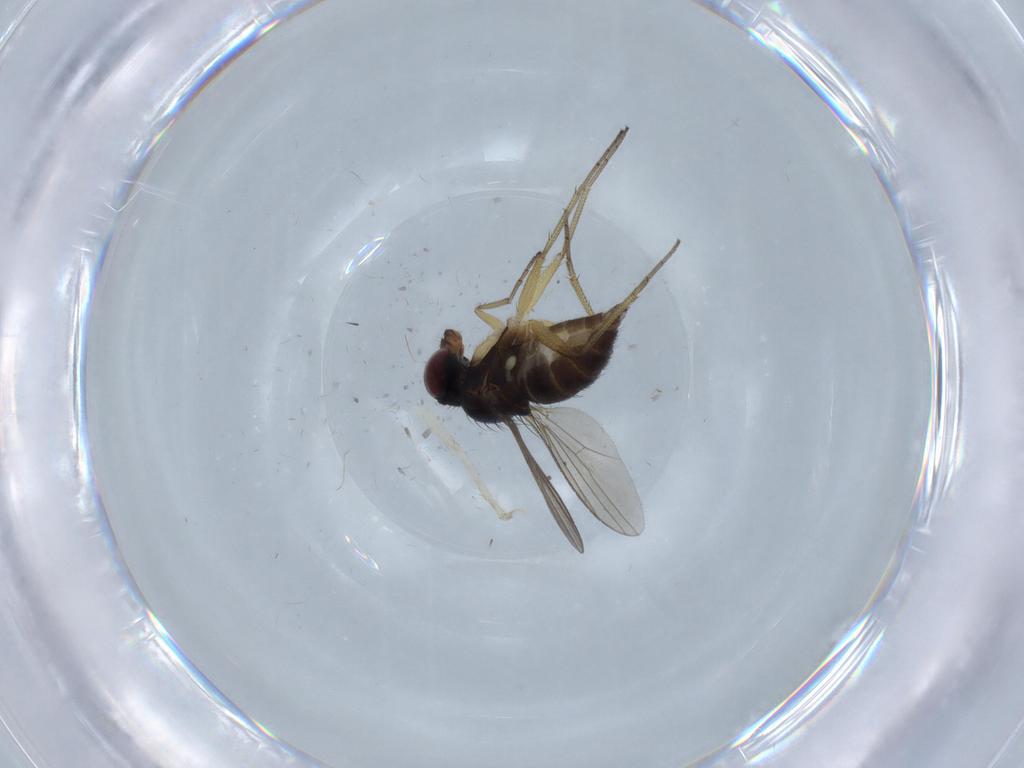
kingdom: Animalia
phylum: Arthropoda
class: Insecta
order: Diptera
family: Dolichopodidae
